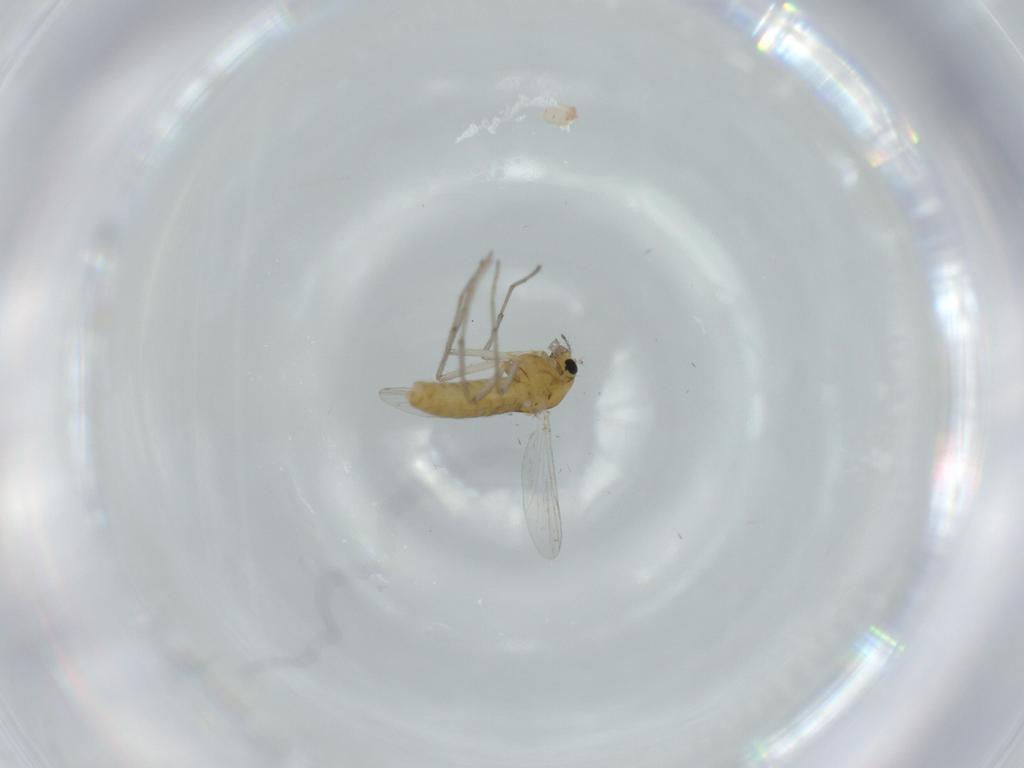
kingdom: Animalia
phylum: Arthropoda
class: Insecta
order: Diptera
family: Chironomidae
